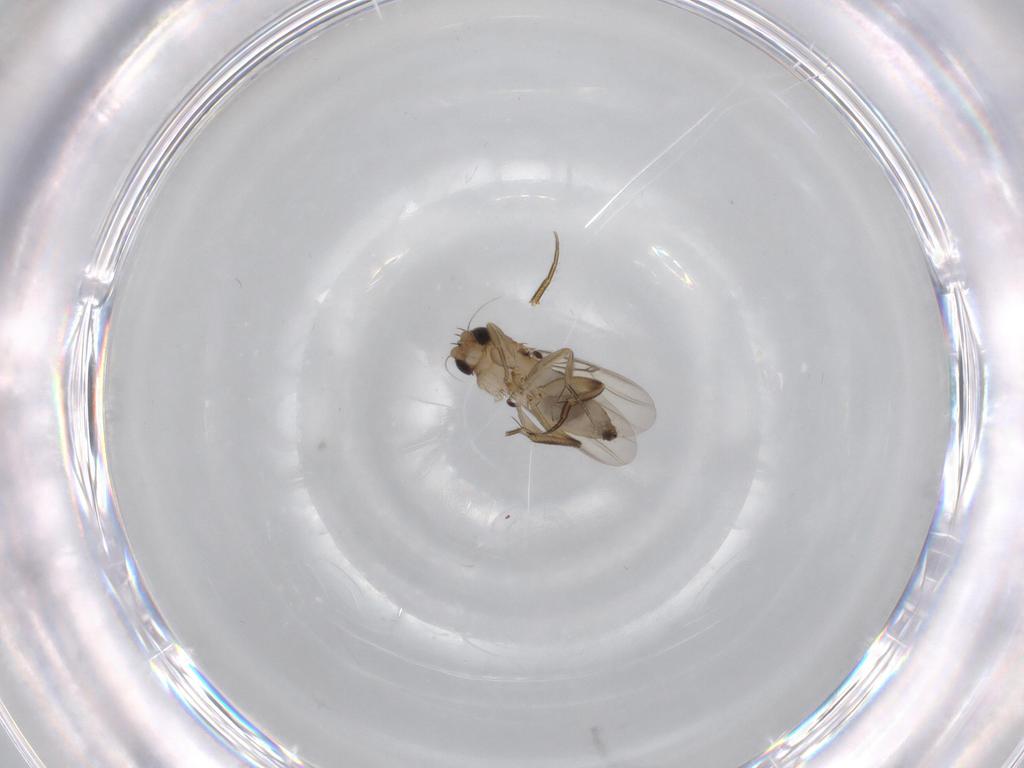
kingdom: Animalia
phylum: Arthropoda
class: Insecta
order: Diptera
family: Phoridae
